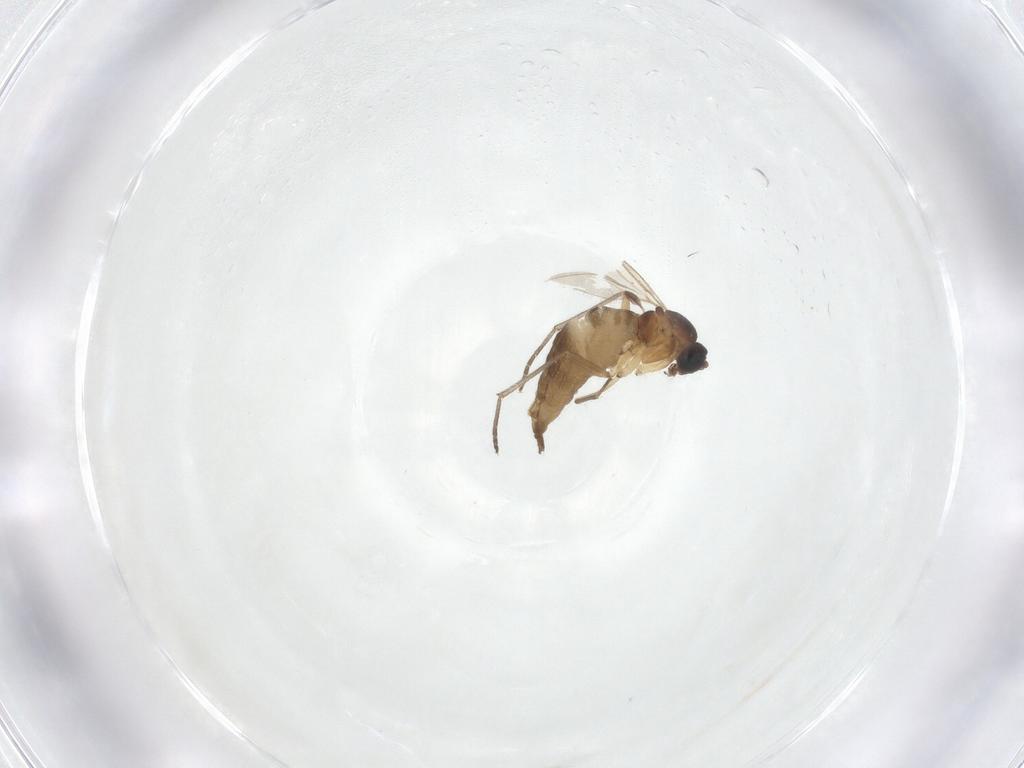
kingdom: Animalia
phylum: Arthropoda
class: Insecta
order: Diptera
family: Sciaridae
